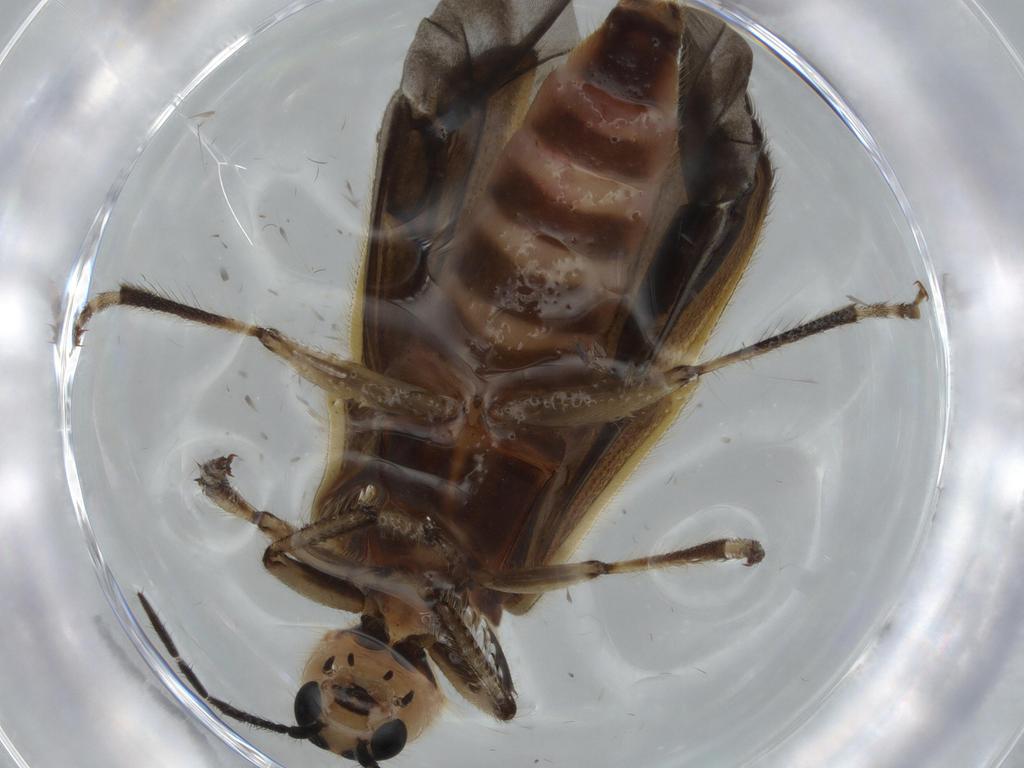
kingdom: Animalia
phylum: Arthropoda
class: Insecta
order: Coleoptera
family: Cleridae
